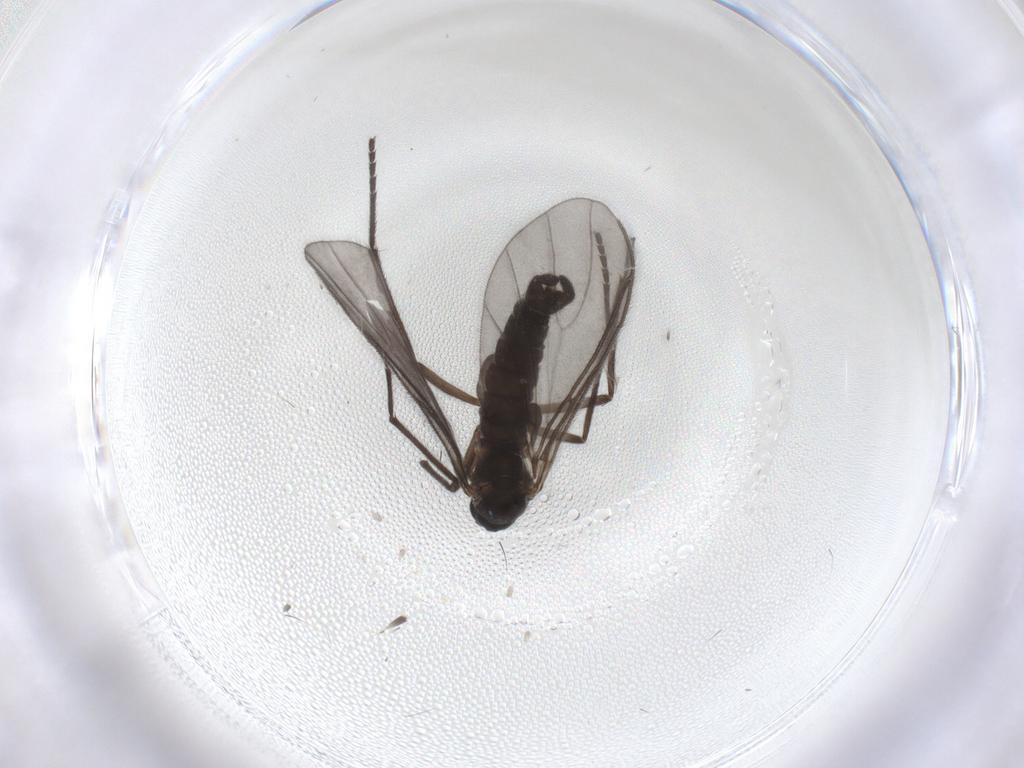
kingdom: Animalia
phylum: Arthropoda
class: Insecta
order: Diptera
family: Sciaridae
